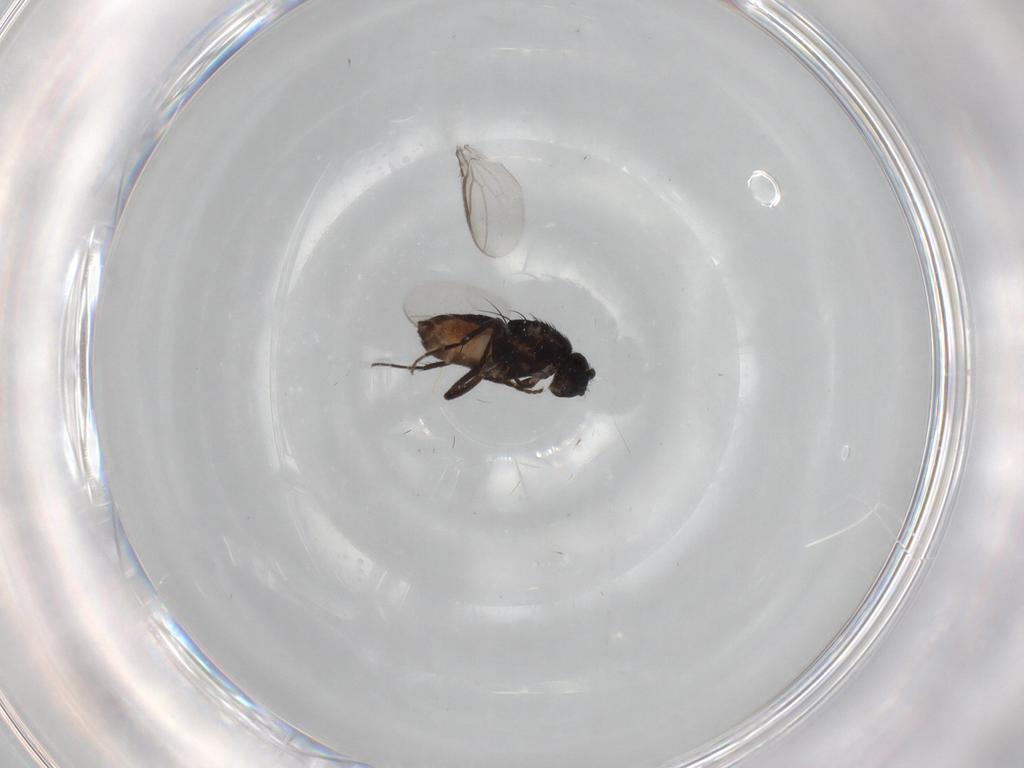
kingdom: Animalia
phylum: Arthropoda
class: Insecta
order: Diptera
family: Sphaeroceridae
